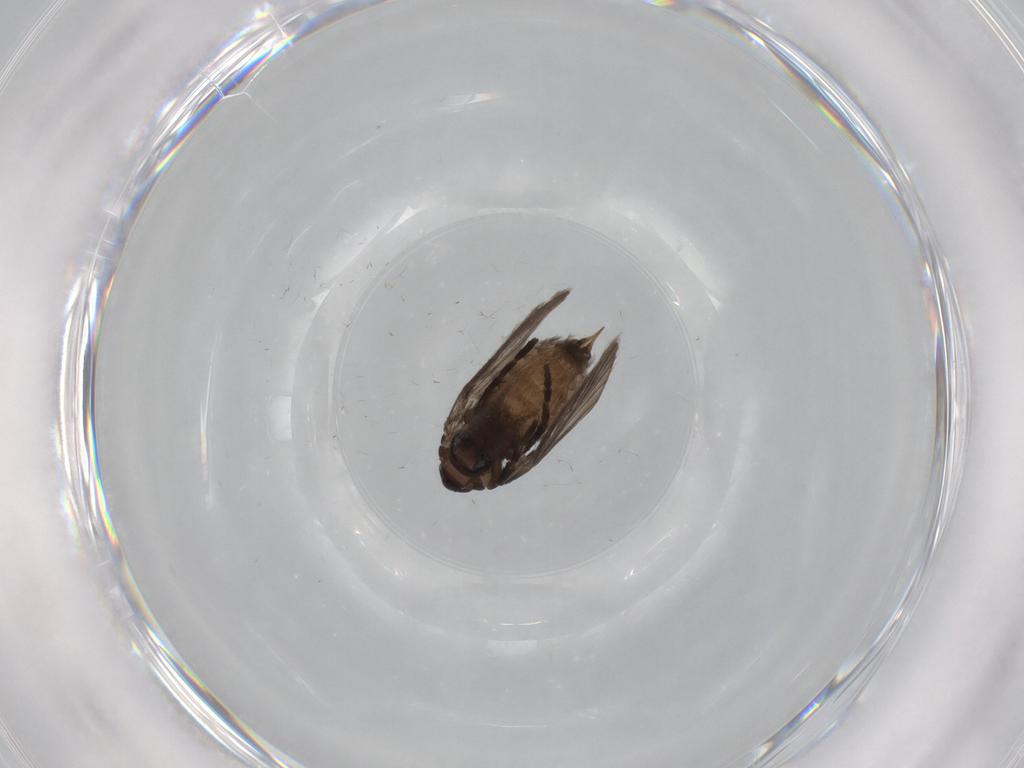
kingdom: Animalia
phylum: Arthropoda
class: Insecta
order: Diptera
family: Psychodidae
